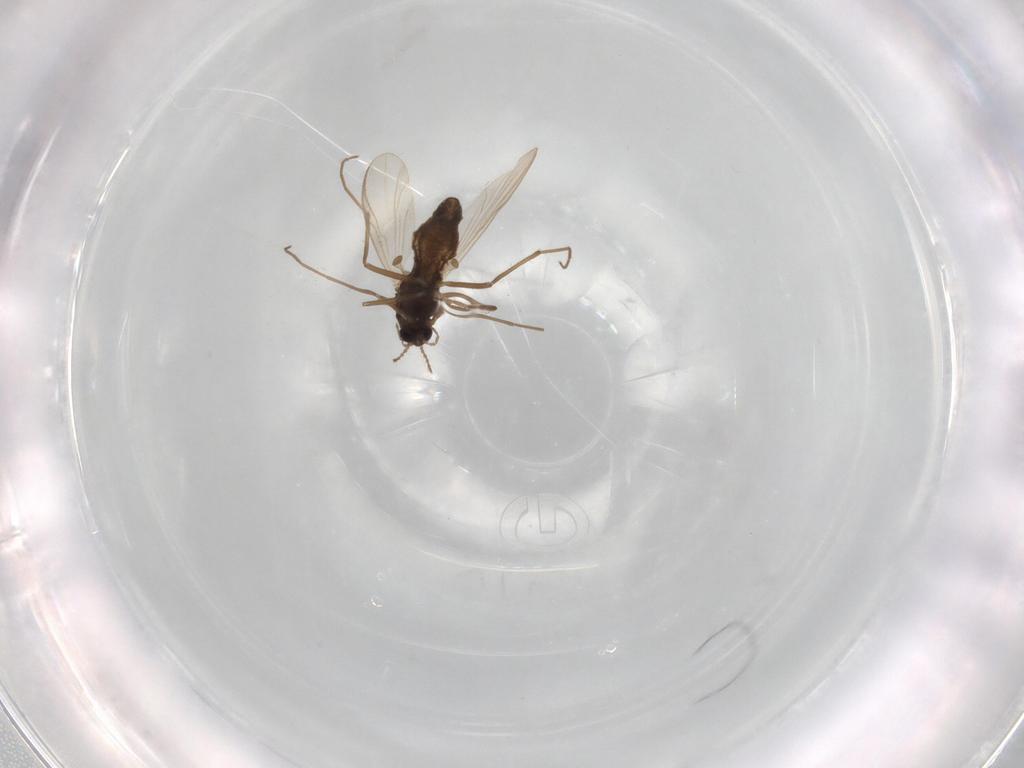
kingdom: Animalia
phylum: Arthropoda
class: Insecta
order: Diptera
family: Chironomidae
